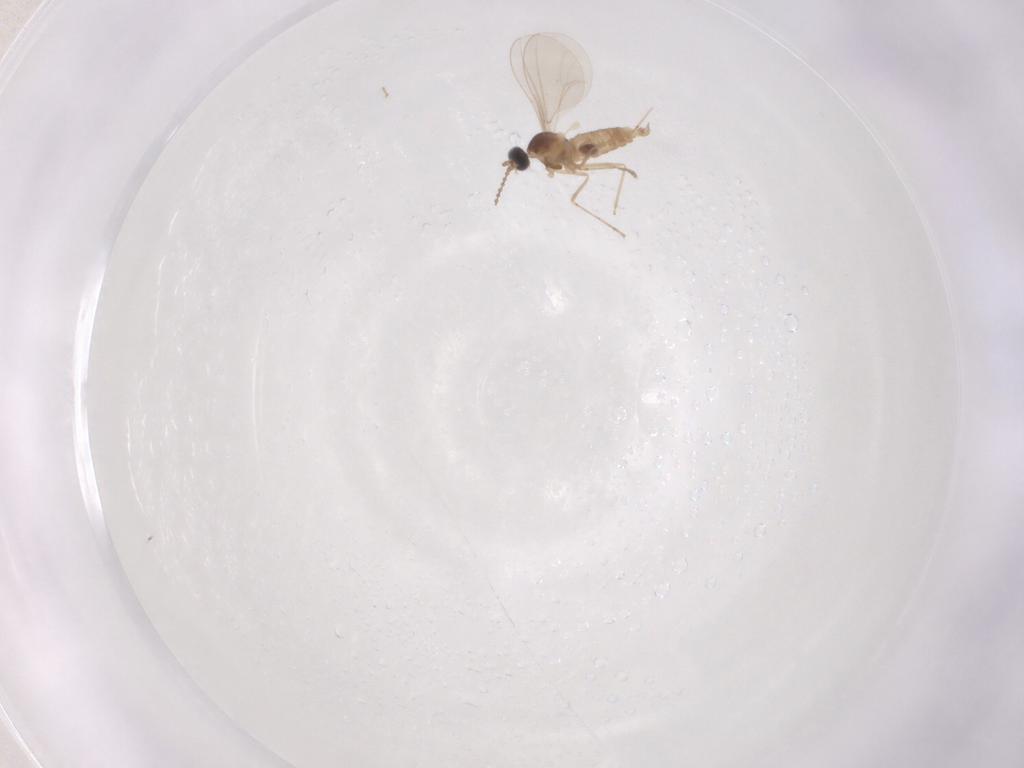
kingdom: Animalia
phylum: Arthropoda
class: Insecta
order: Diptera
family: Cecidomyiidae
